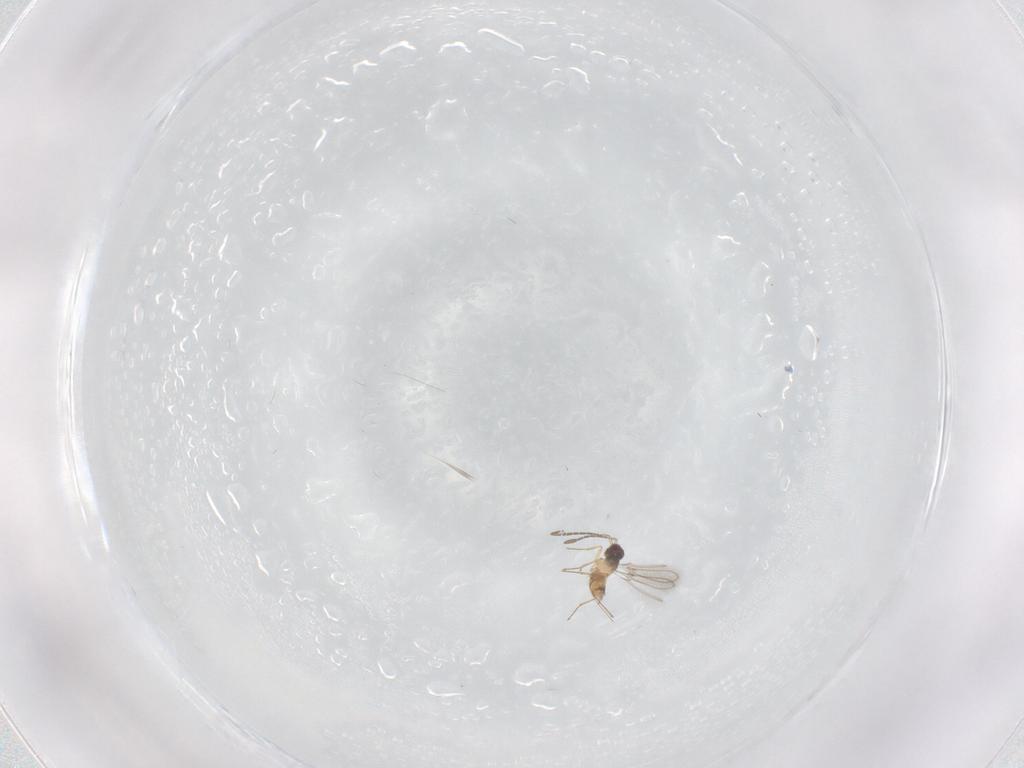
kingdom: Animalia
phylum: Arthropoda
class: Insecta
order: Hymenoptera
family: Mymaridae
